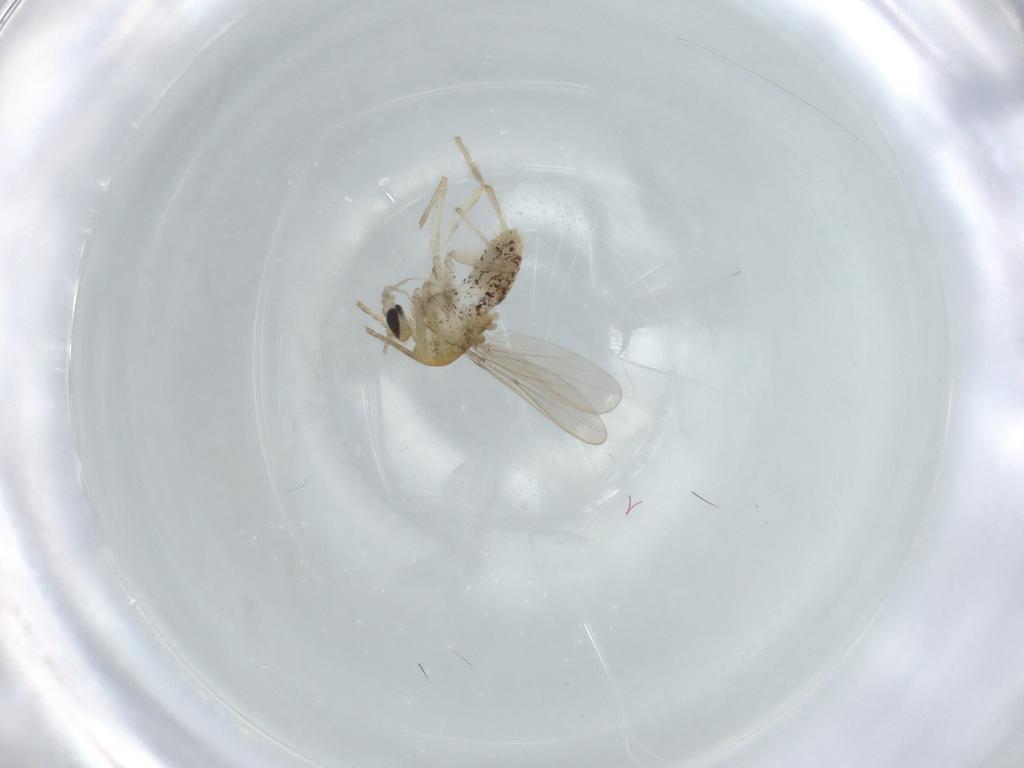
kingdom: Animalia
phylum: Arthropoda
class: Insecta
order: Diptera
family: Chironomidae
